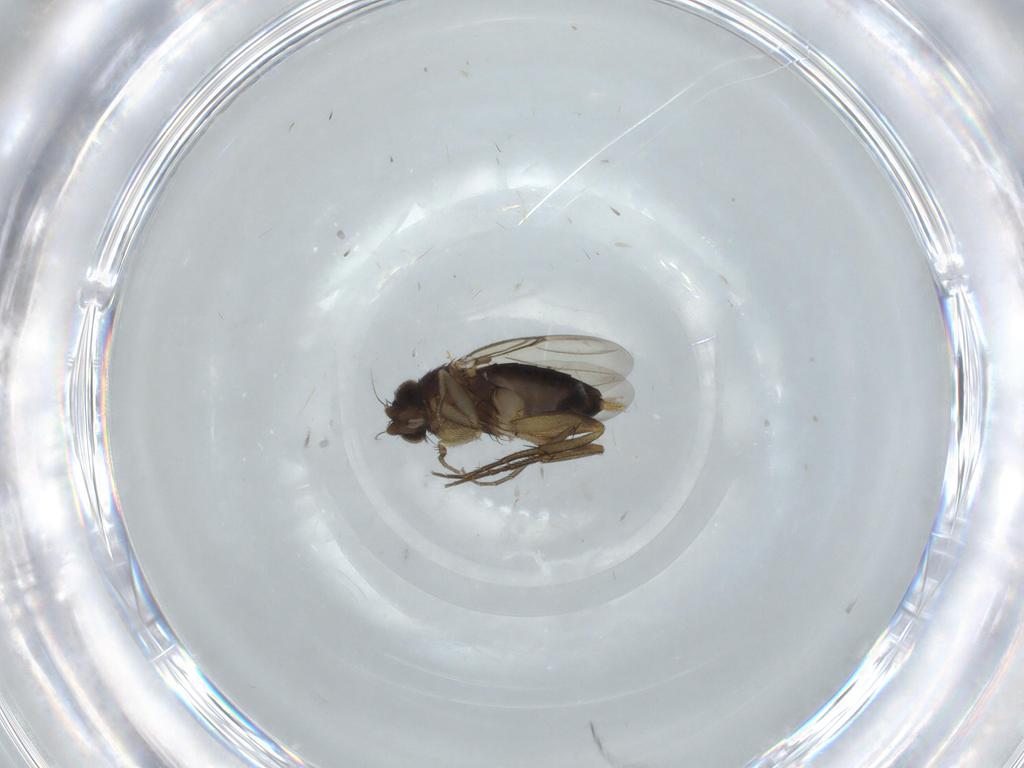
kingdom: Animalia
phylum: Arthropoda
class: Insecta
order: Diptera
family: Phoridae
